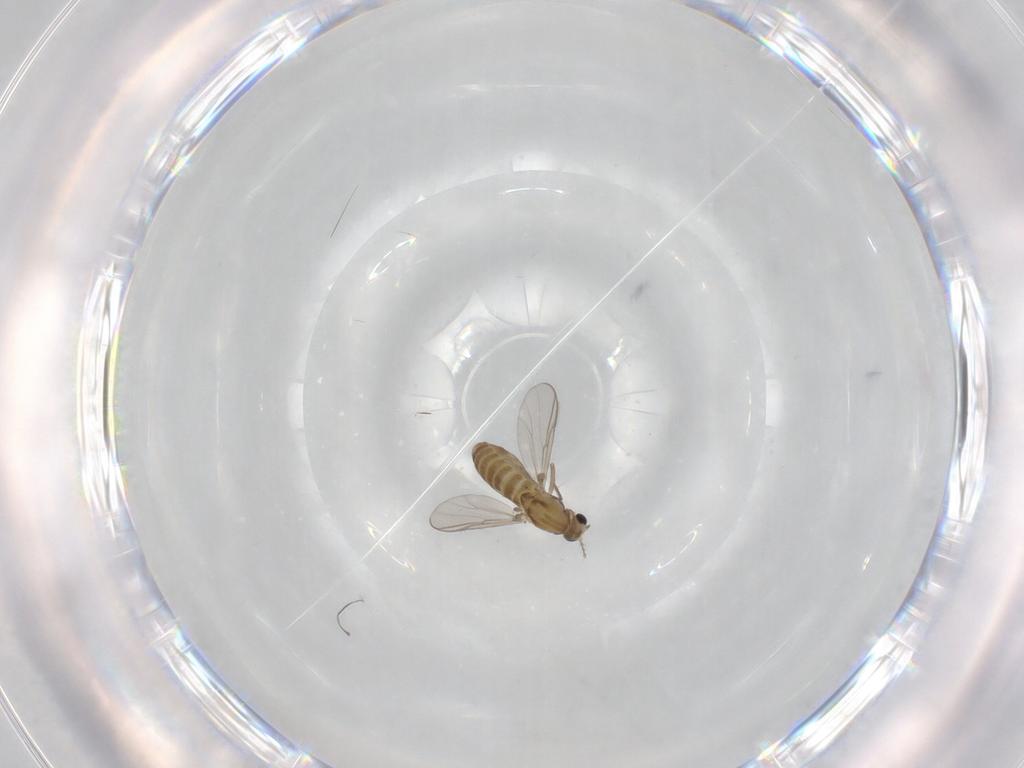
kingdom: Animalia
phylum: Arthropoda
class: Insecta
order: Diptera
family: Chironomidae
